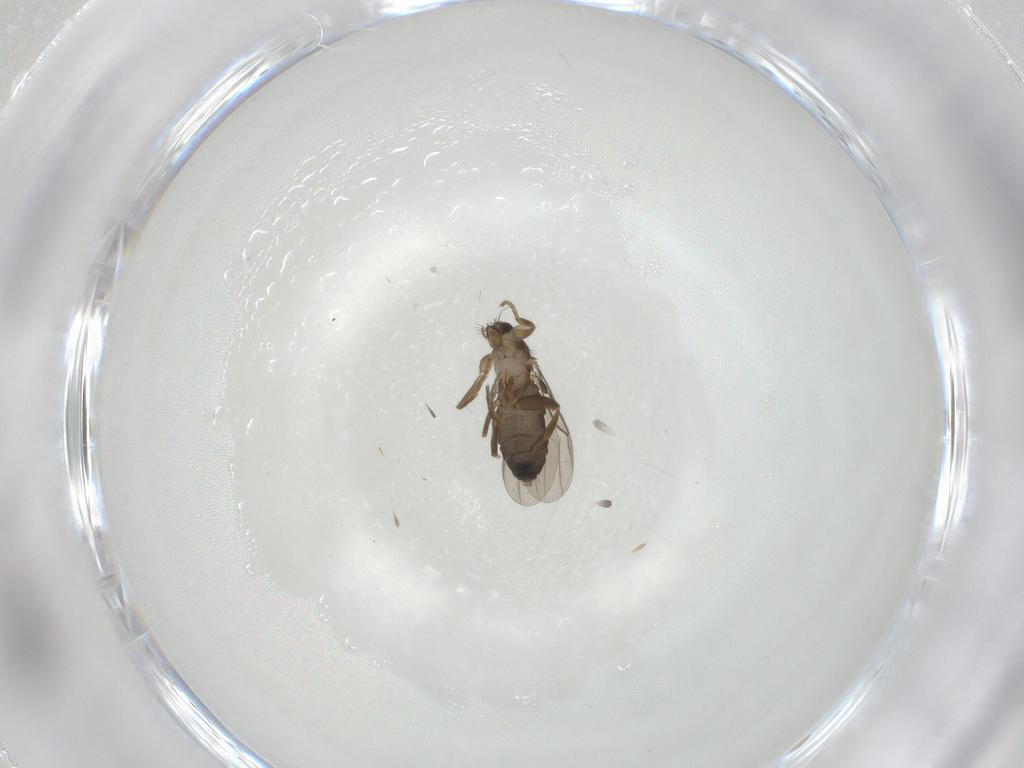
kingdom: Animalia
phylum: Arthropoda
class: Insecta
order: Diptera
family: Phoridae
